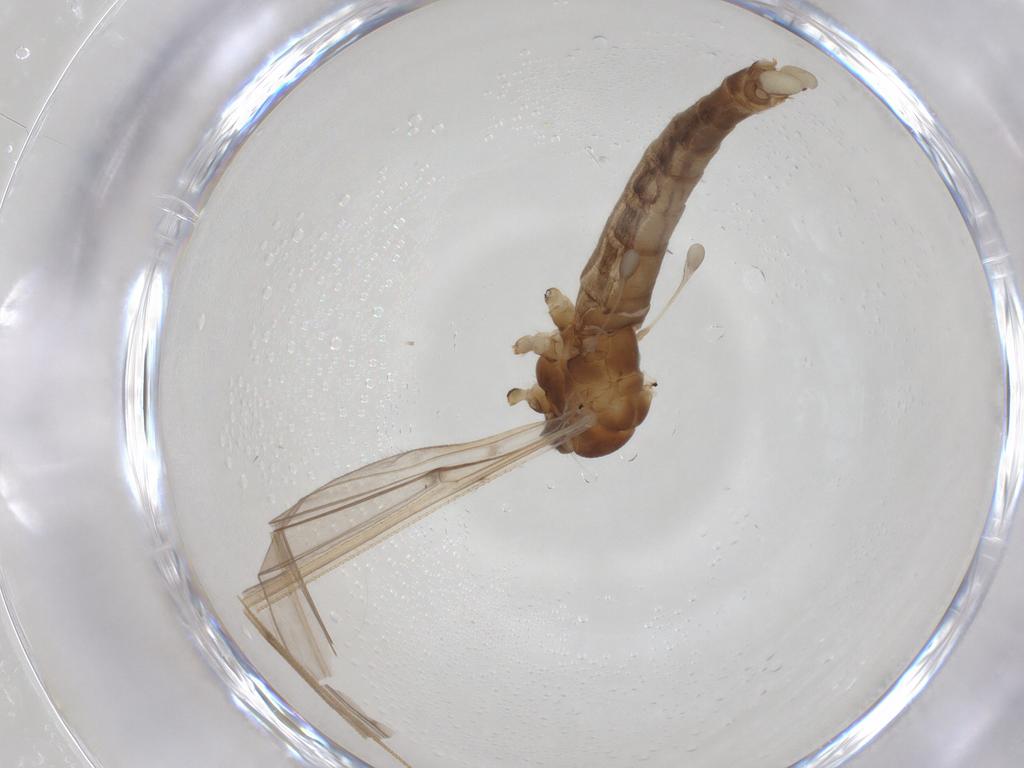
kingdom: Animalia
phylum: Arthropoda
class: Insecta
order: Diptera
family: Limoniidae
